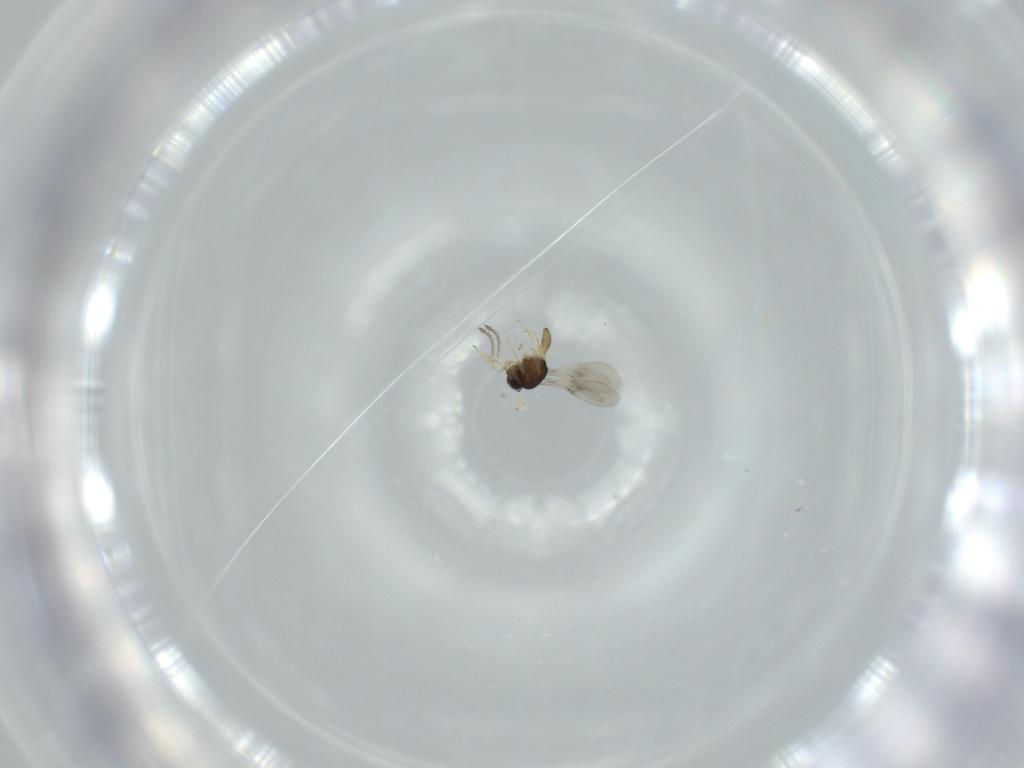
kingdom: Animalia
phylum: Arthropoda
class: Insecta
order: Hymenoptera
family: Scelionidae
